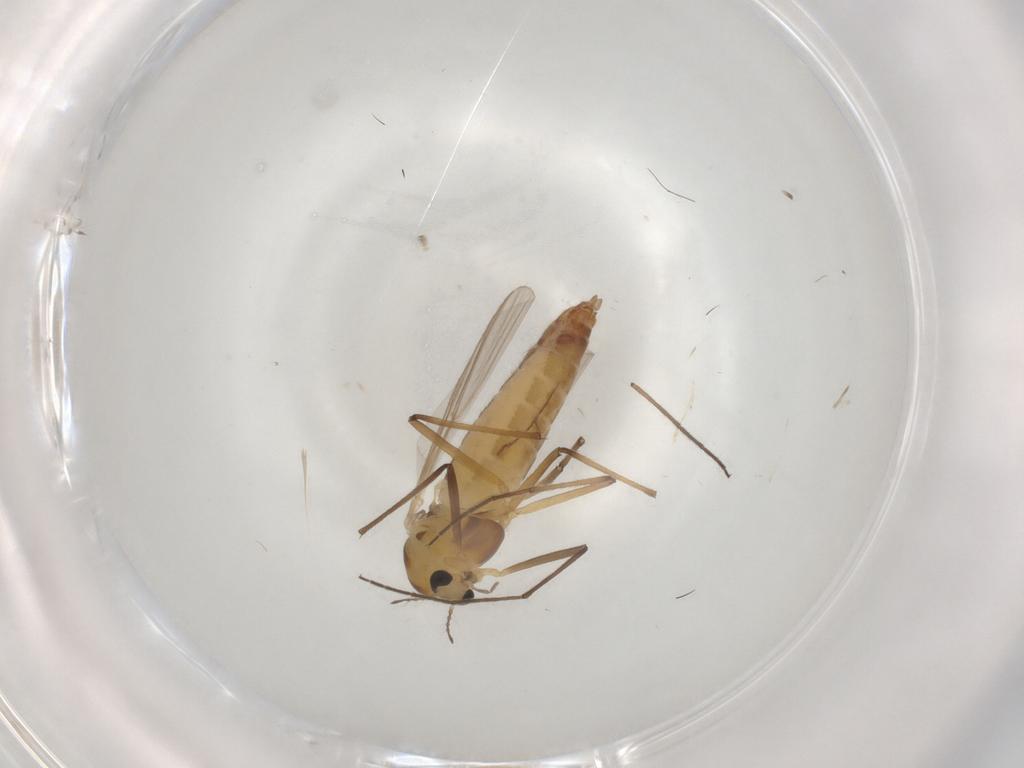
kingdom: Animalia
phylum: Arthropoda
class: Insecta
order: Diptera
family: Chironomidae
